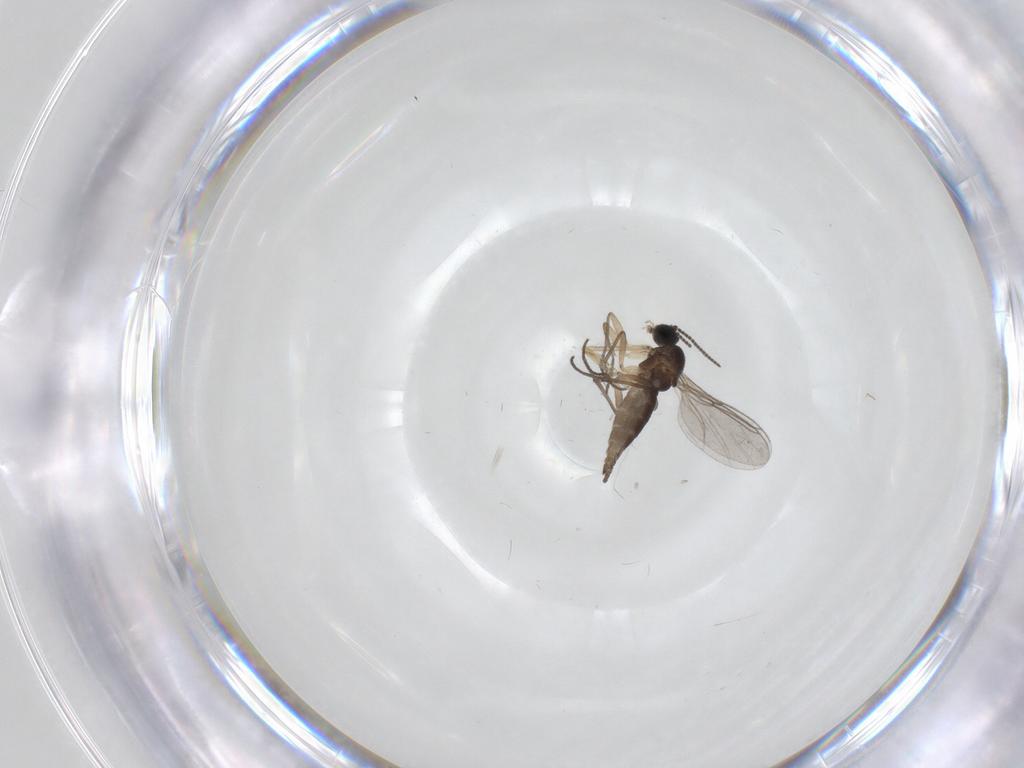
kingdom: Animalia
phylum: Arthropoda
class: Insecta
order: Diptera
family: Chironomidae
